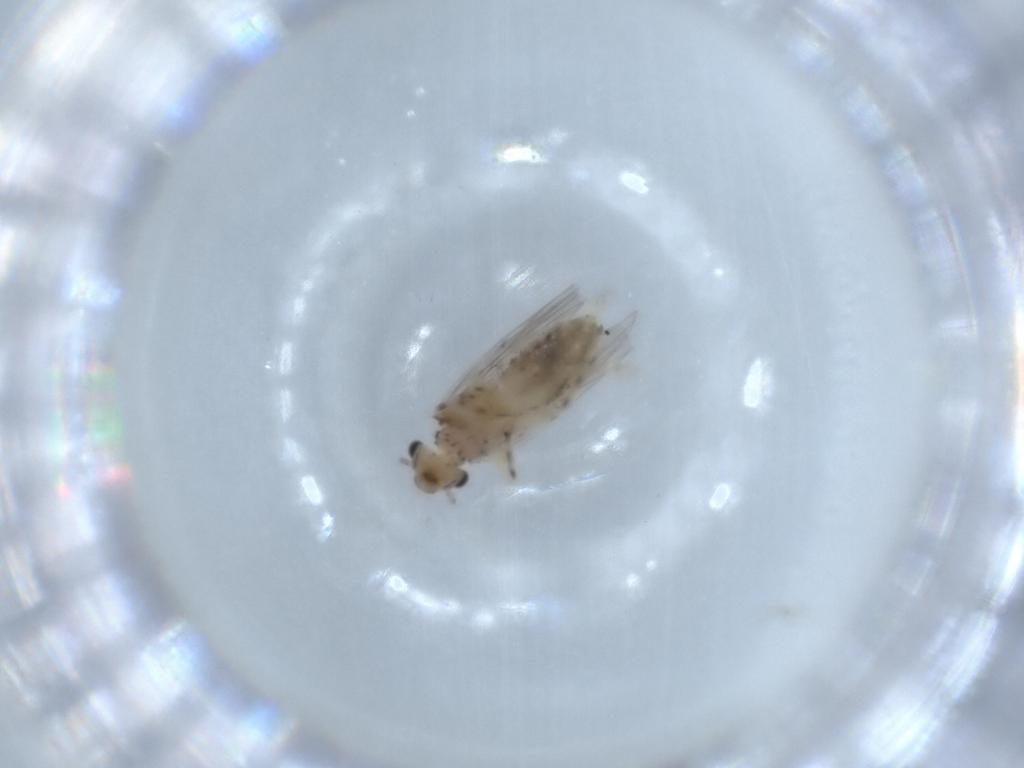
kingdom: Animalia
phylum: Arthropoda
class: Insecta
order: Psocodea
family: Lepidopsocidae
